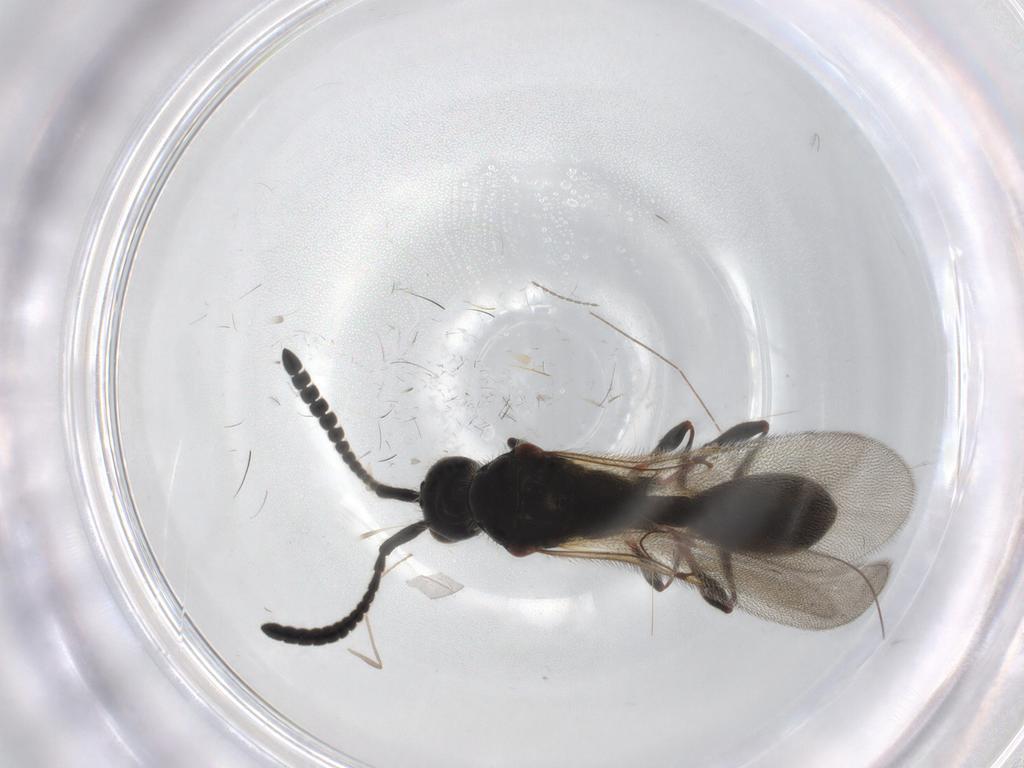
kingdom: Animalia
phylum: Arthropoda
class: Insecta
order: Hymenoptera
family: Diapriidae
